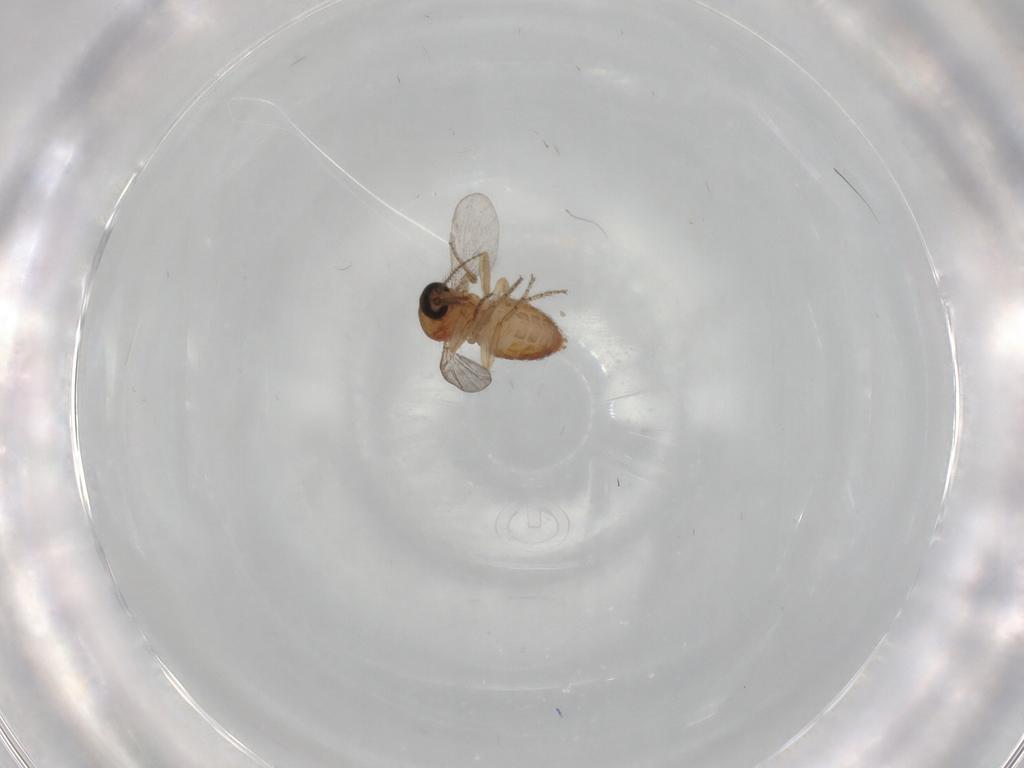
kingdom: Animalia
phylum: Arthropoda
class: Insecta
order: Diptera
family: Ceratopogonidae
